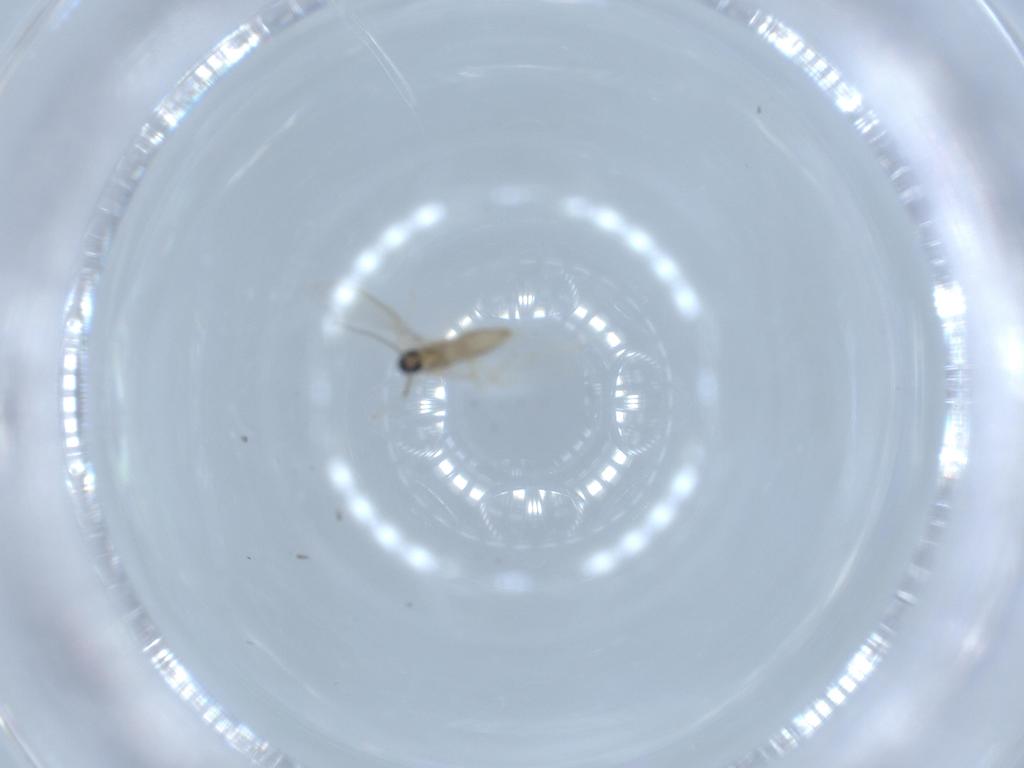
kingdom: Animalia
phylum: Arthropoda
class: Insecta
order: Diptera
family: Cecidomyiidae
